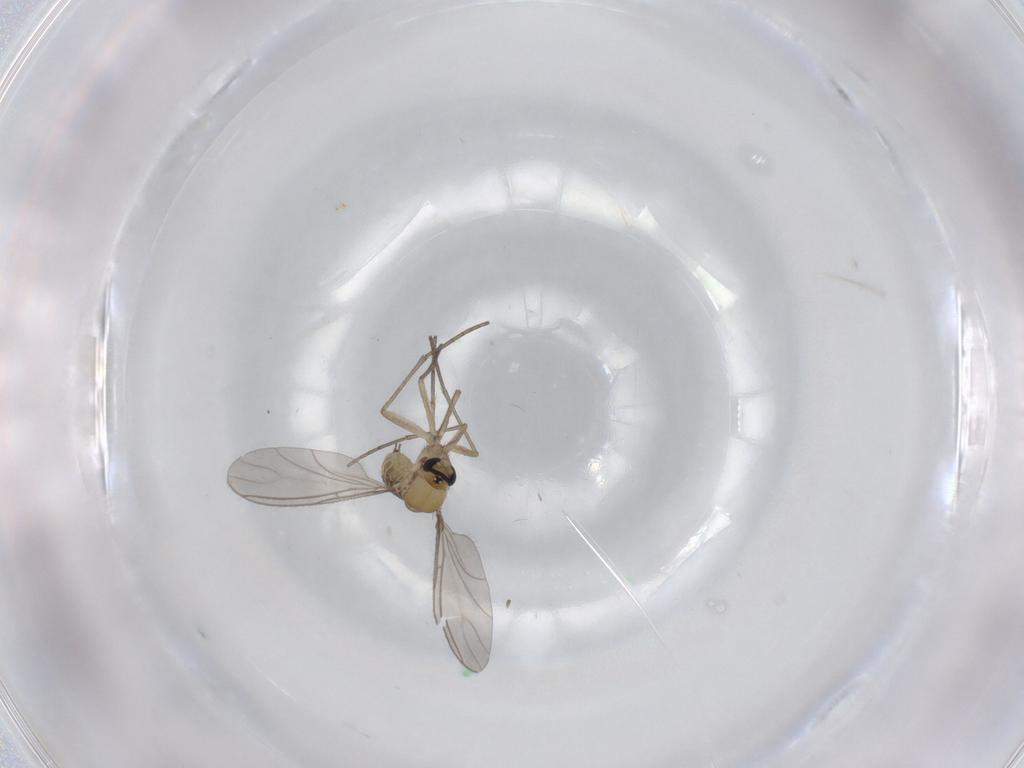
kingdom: Animalia
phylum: Arthropoda
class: Insecta
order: Diptera
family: Sciaridae
